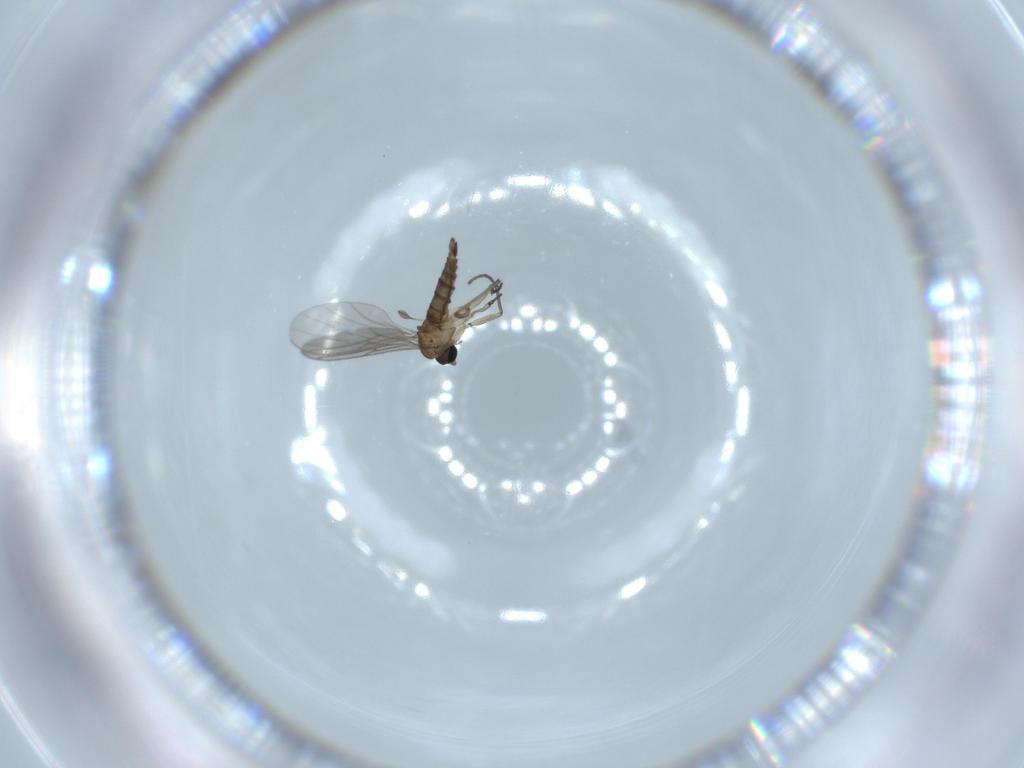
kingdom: Animalia
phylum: Arthropoda
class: Insecta
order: Diptera
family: Sciaridae
